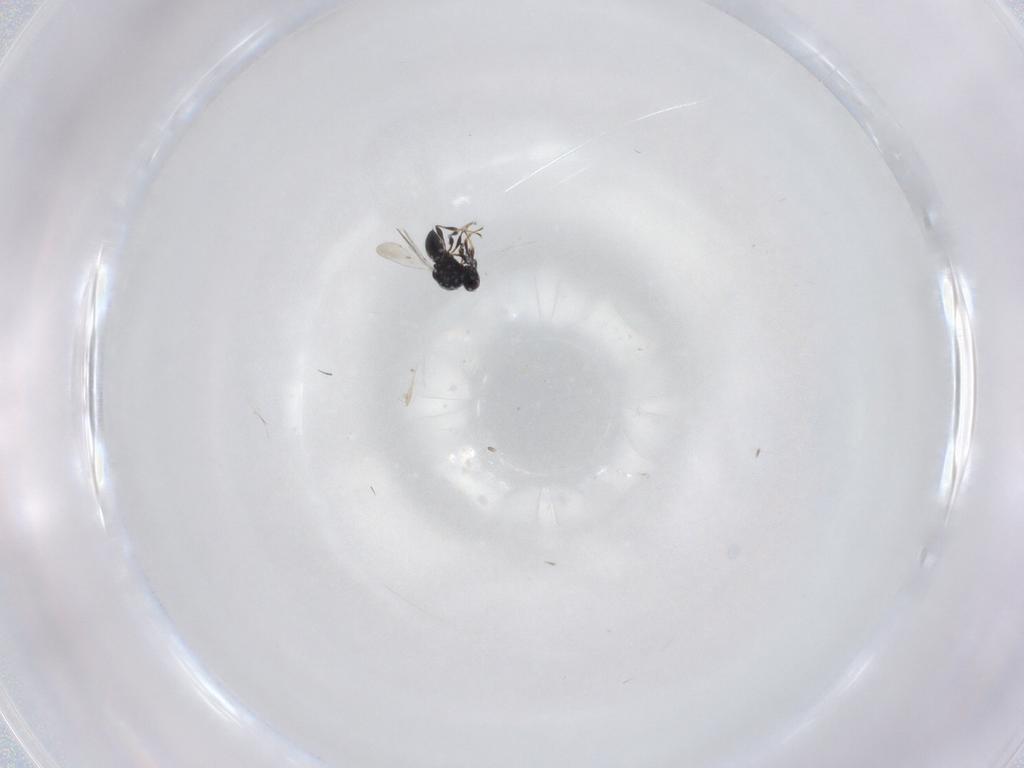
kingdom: Animalia
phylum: Arthropoda
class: Insecta
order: Hymenoptera
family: Platygastridae
